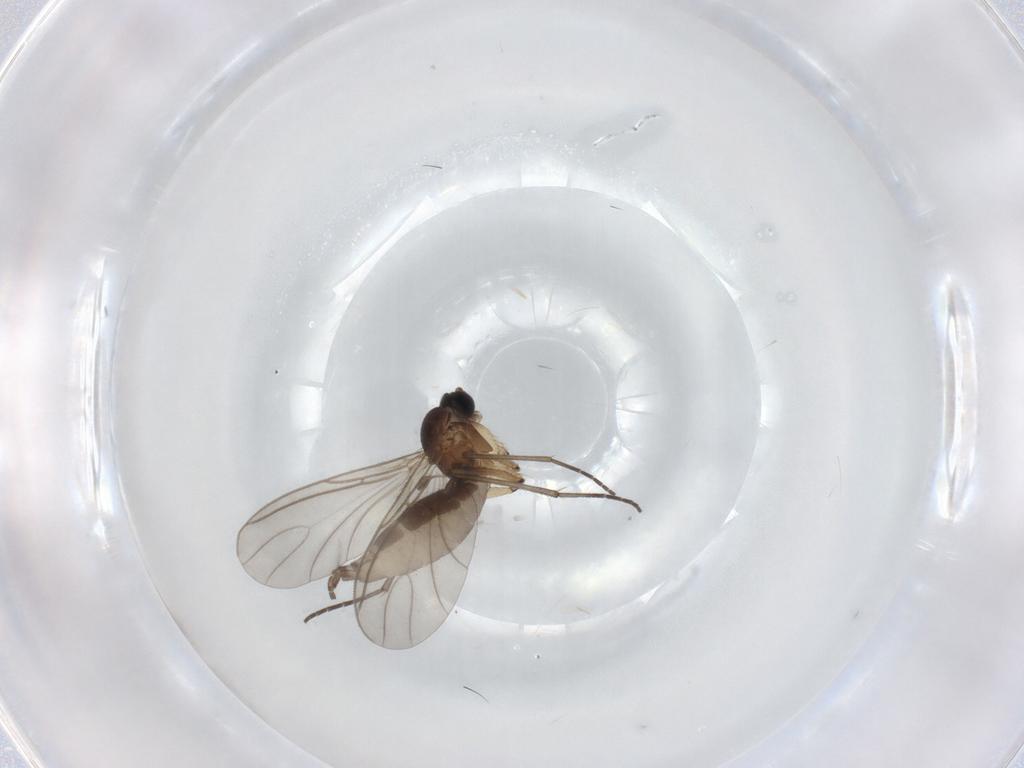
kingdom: Animalia
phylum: Arthropoda
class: Insecta
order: Diptera
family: Sciaridae
